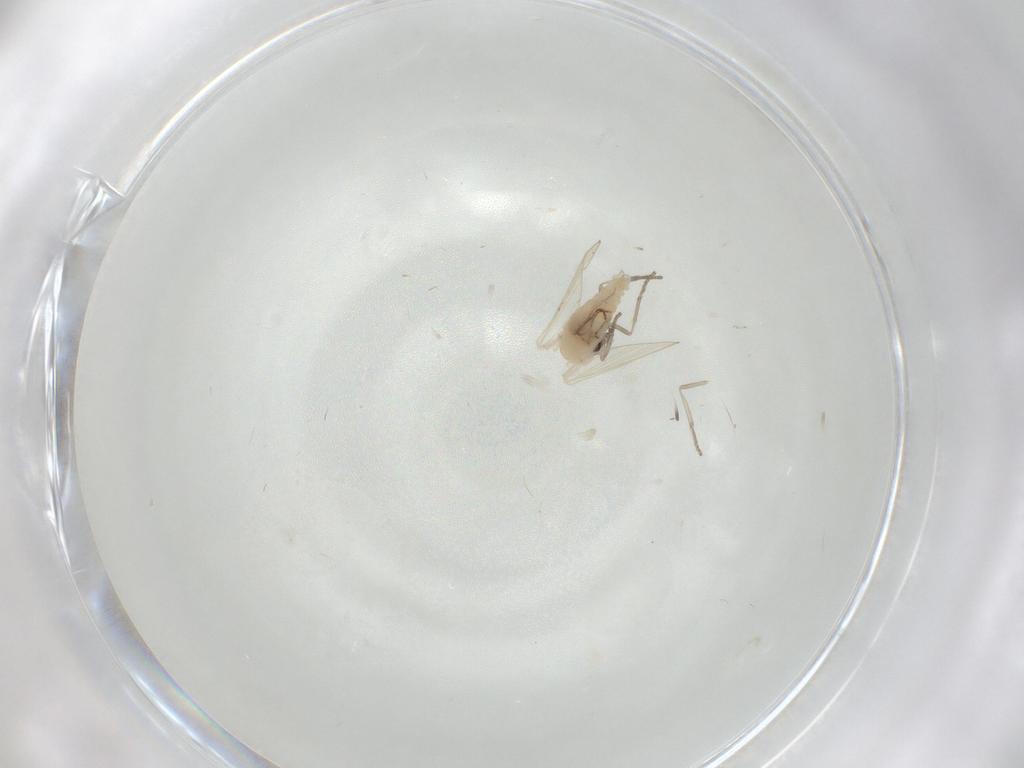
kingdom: Animalia
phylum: Arthropoda
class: Insecta
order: Diptera
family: Psychodidae
